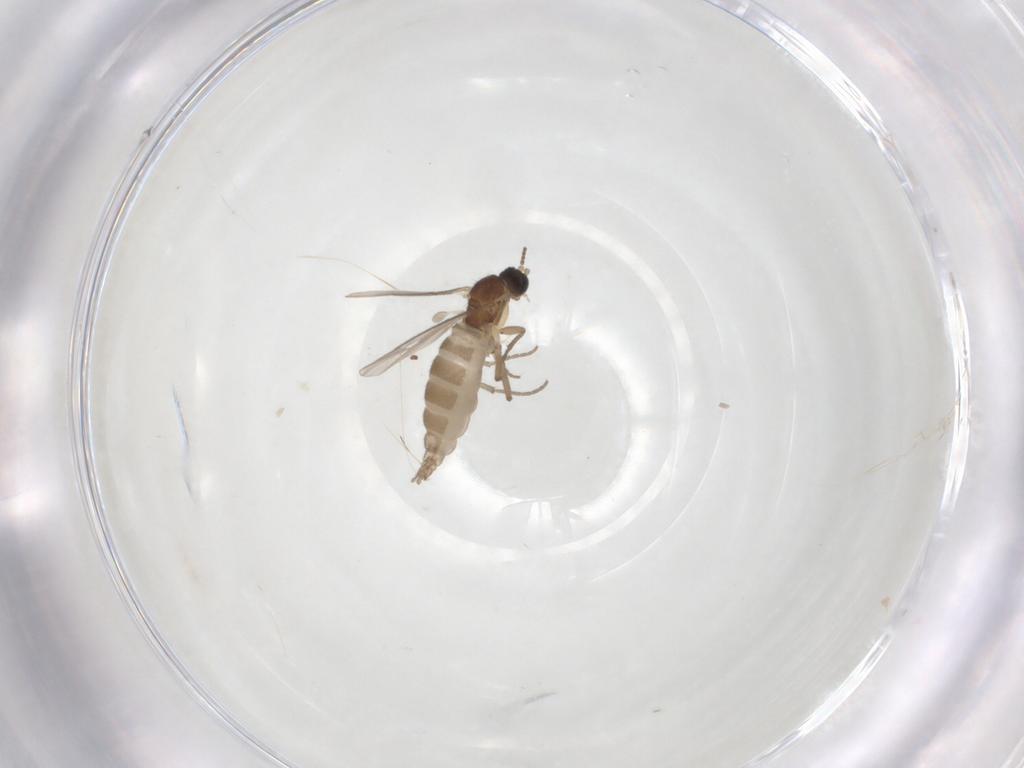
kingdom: Animalia
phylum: Arthropoda
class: Insecta
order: Diptera
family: Sciaridae
